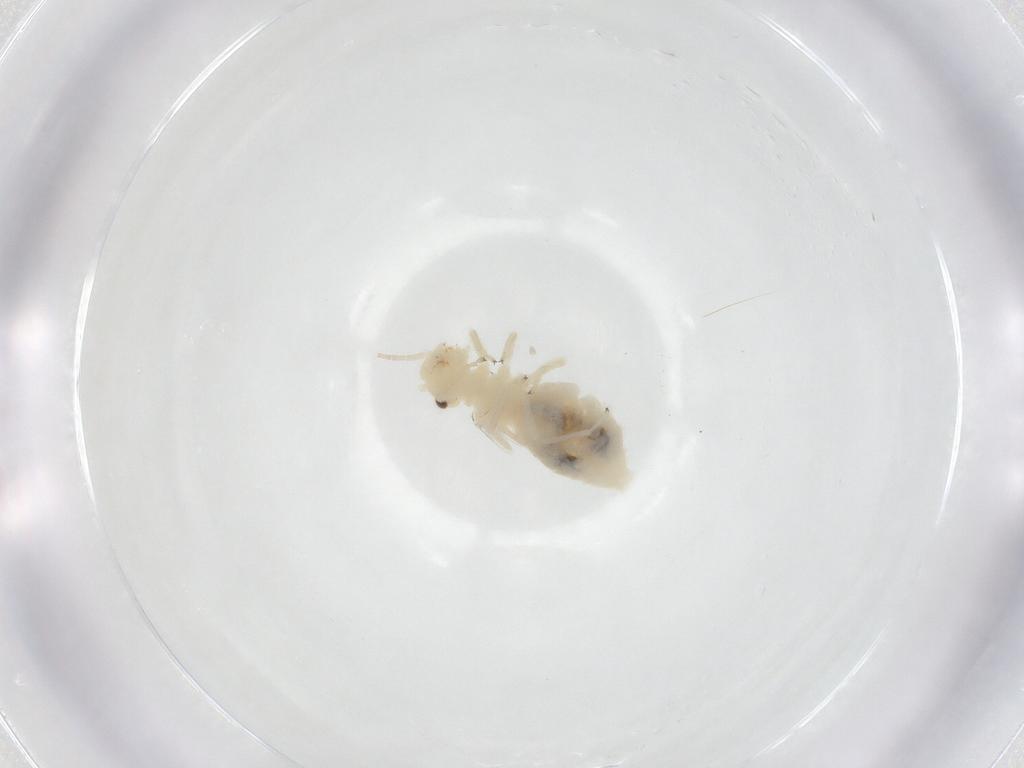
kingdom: Animalia
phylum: Arthropoda
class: Insecta
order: Psocodea
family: Caeciliusidae
